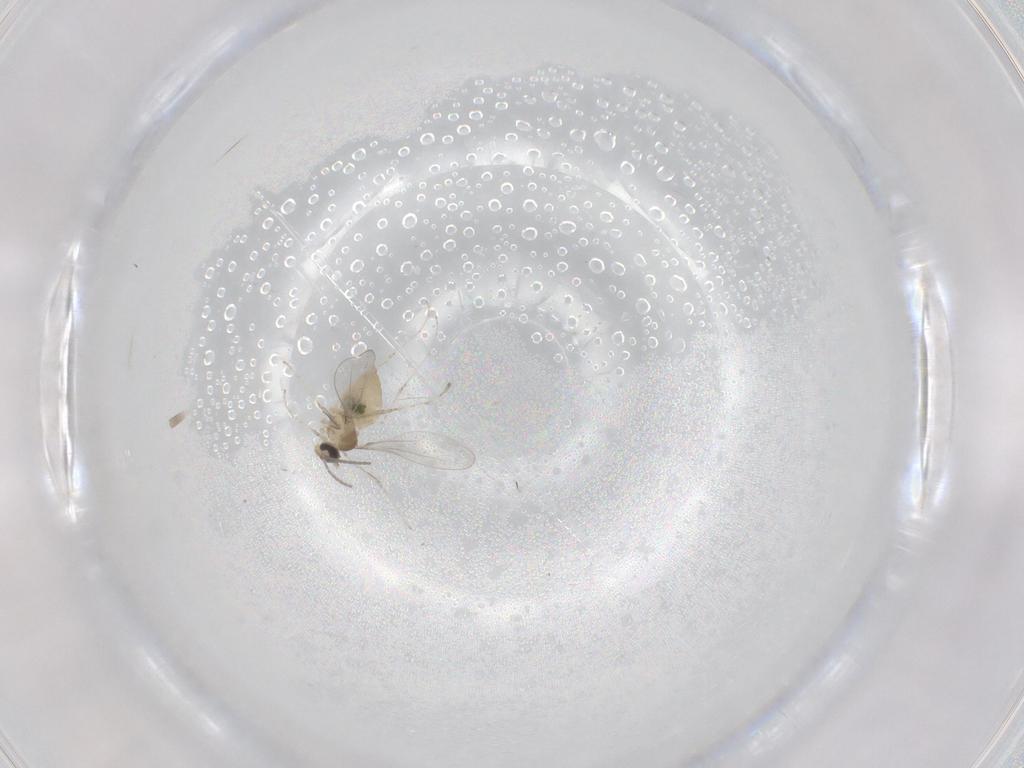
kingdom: Animalia
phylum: Arthropoda
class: Insecta
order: Diptera
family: Cecidomyiidae
